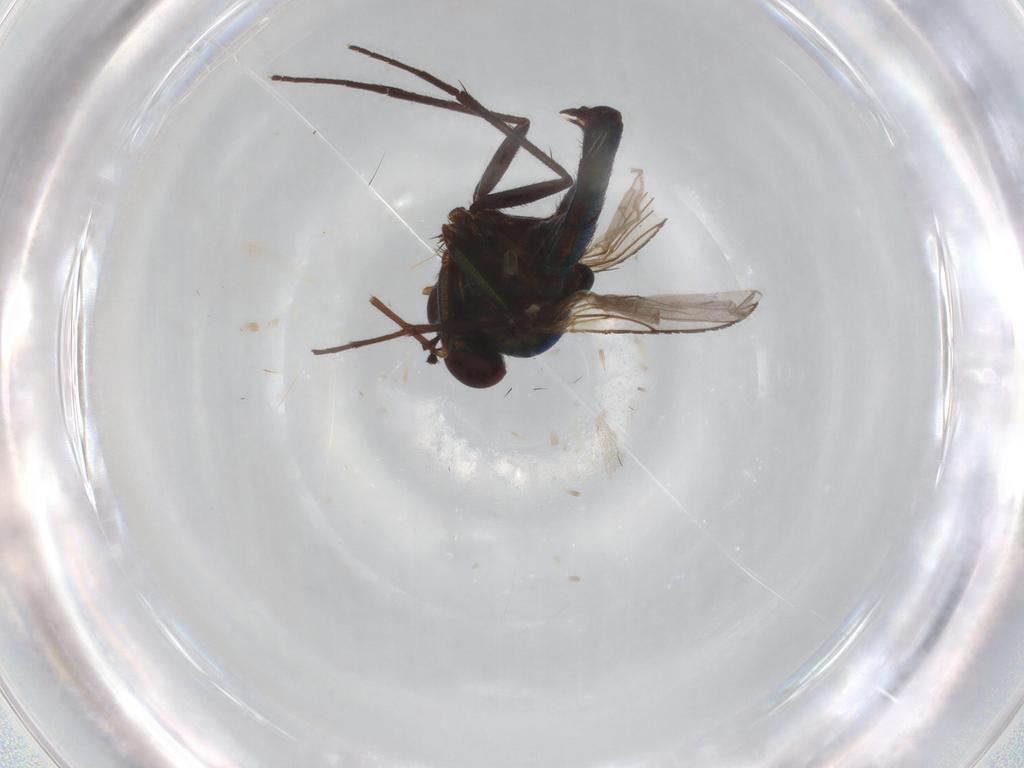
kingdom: Animalia
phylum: Arthropoda
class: Insecta
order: Diptera
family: Dolichopodidae
